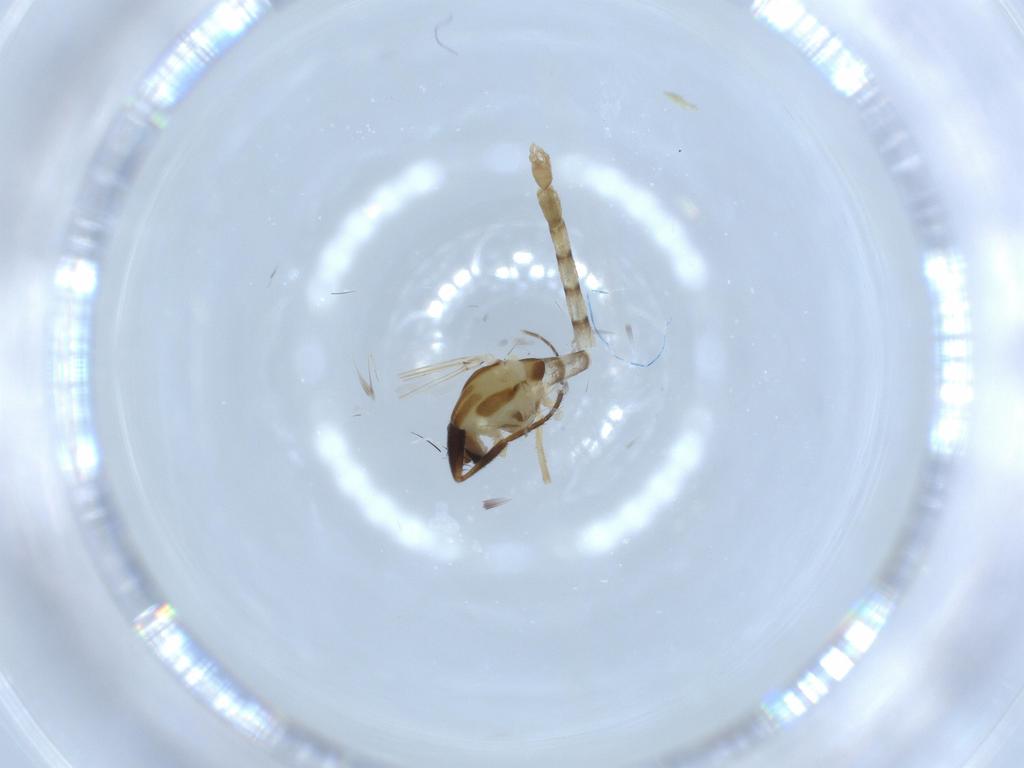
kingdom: Animalia
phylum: Arthropoda
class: Insecta
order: Diptera
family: Chironomidae
